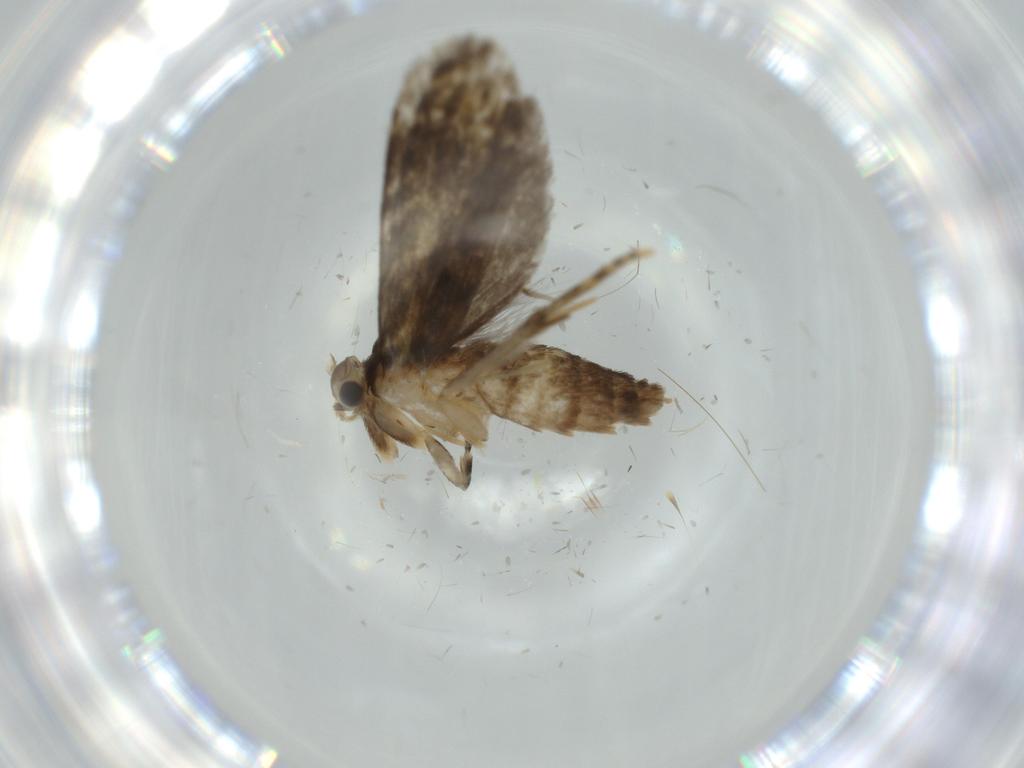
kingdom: Animalia
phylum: Arthropoda
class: Insecta
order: Lepidoptera
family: Tineidae
